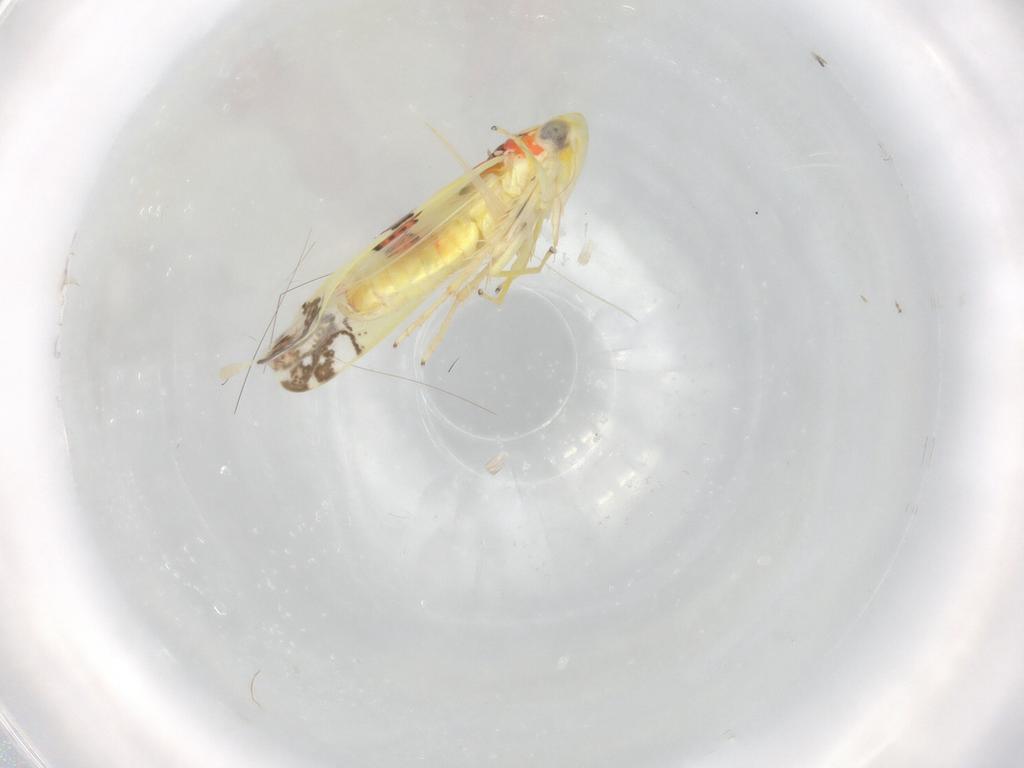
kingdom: Animalia
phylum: Arthropoda
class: Insecta
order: Hemiptera
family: Cicadellidae
